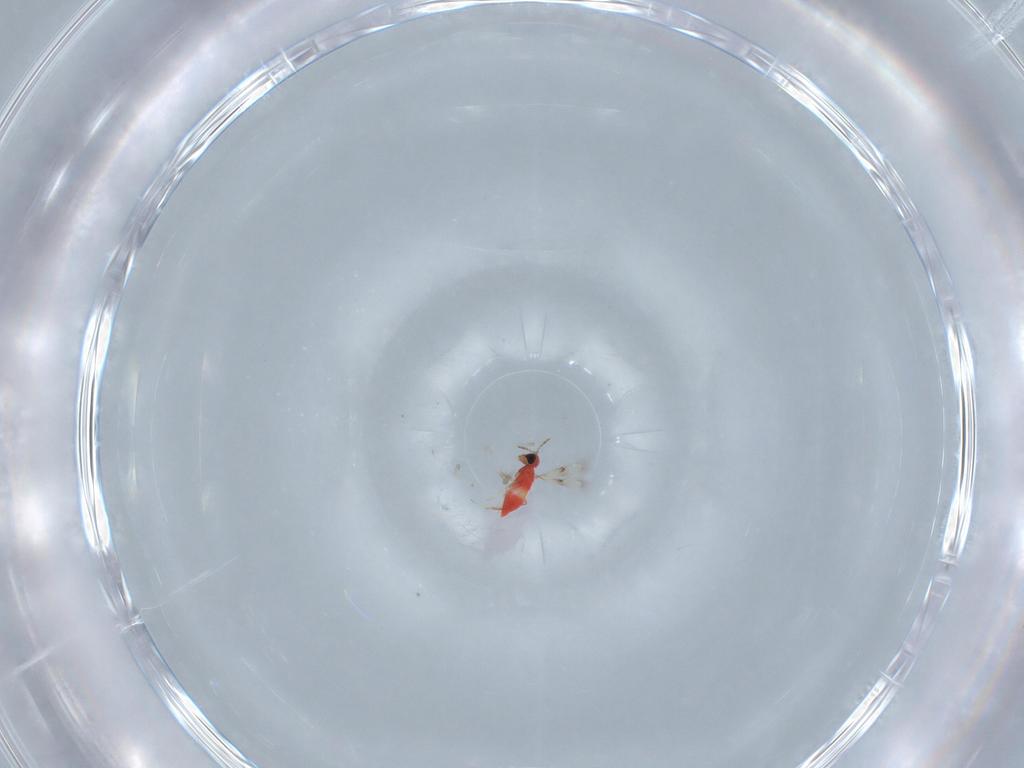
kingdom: Animalia
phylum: Arthropoda
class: Insecta
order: Hymenoptera
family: Trichogrammatidae
